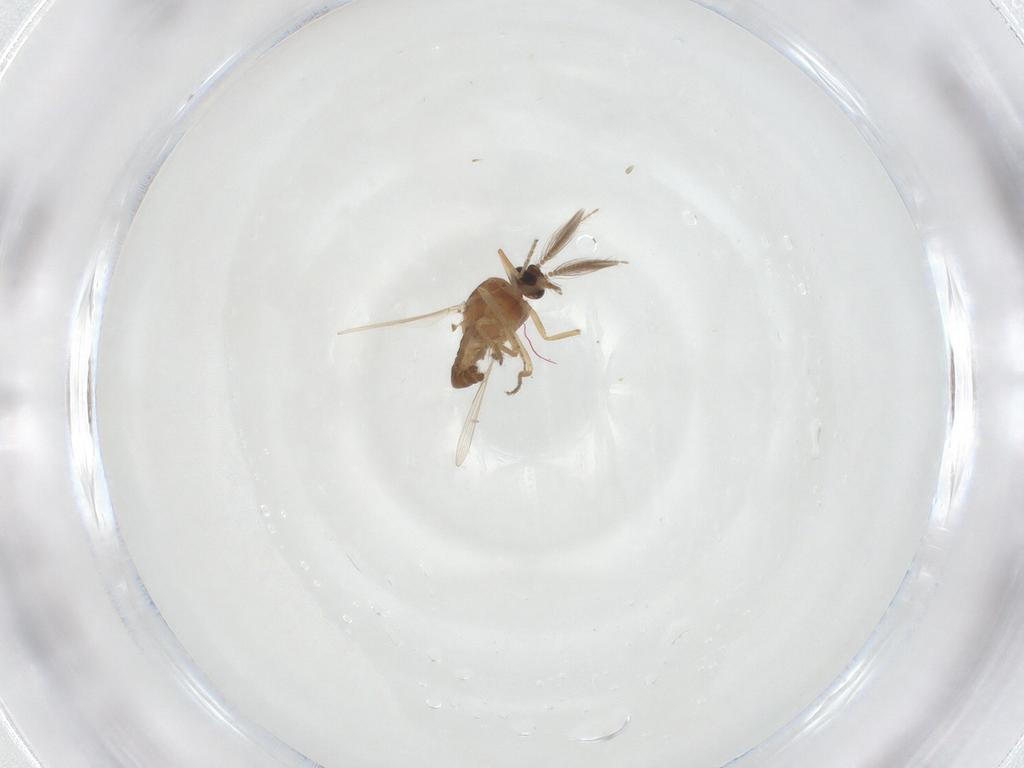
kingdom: Animalia
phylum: Arthropoda
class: Insecta
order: Diptera
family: Ceratopogonidae
